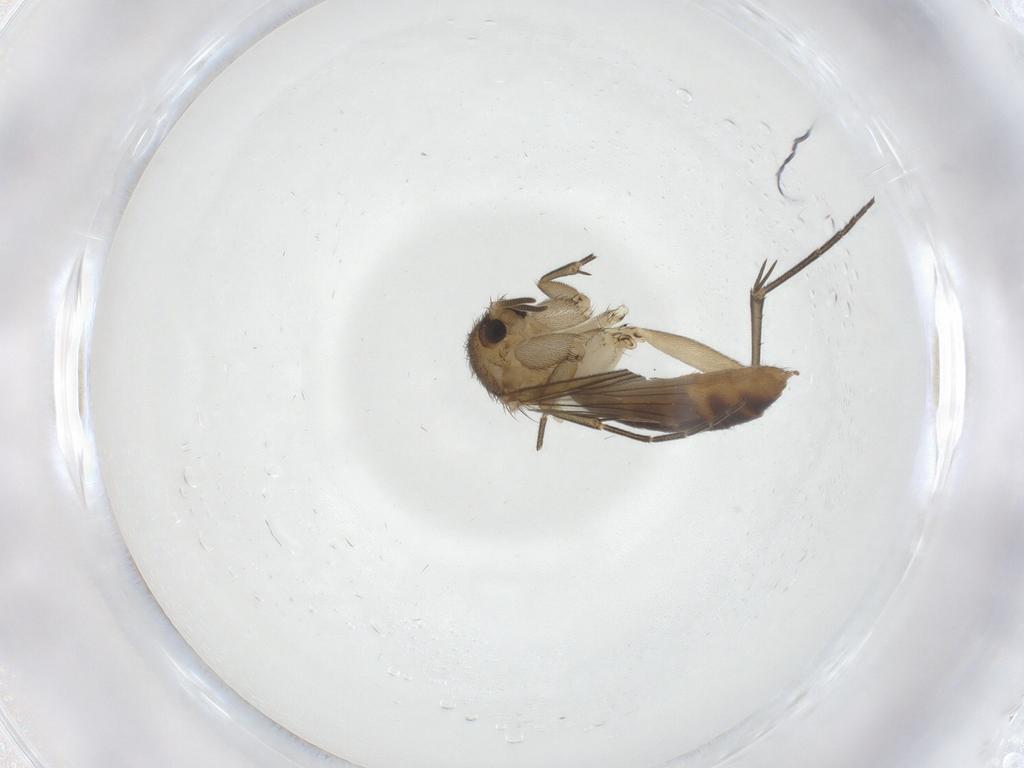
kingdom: Animalia
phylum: Arthropoda
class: Insecta
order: Diptera
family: Mycetophilidae
